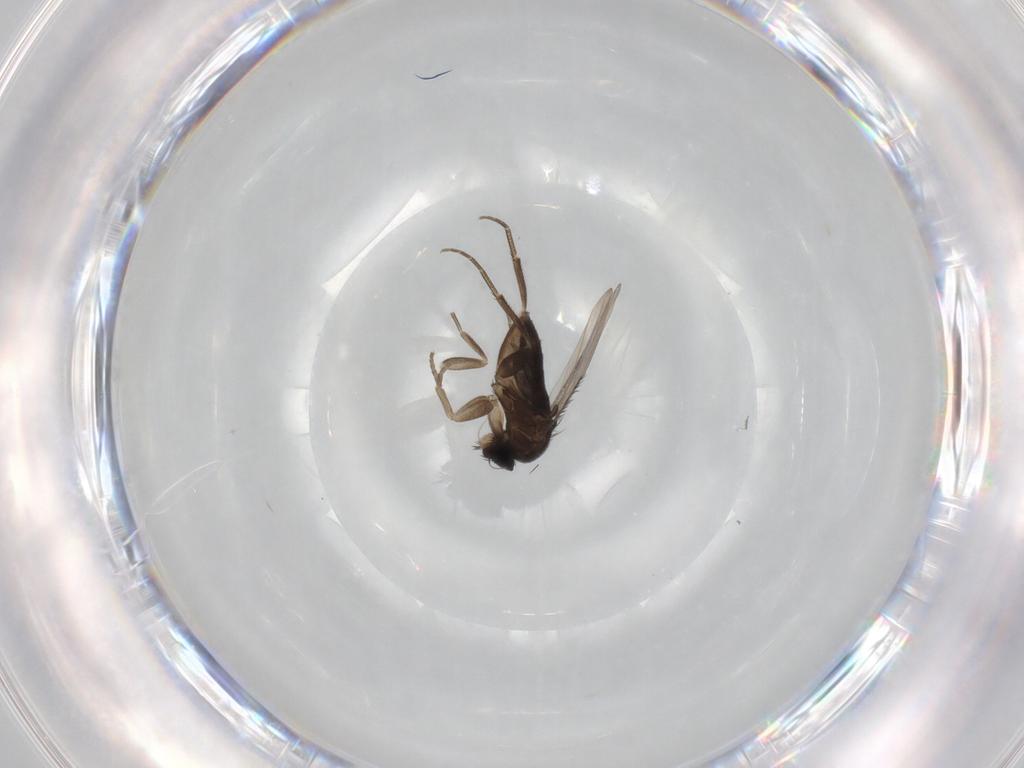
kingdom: Animalia
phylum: Arthropoda
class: Insecta
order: Diptera
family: Phoridae
